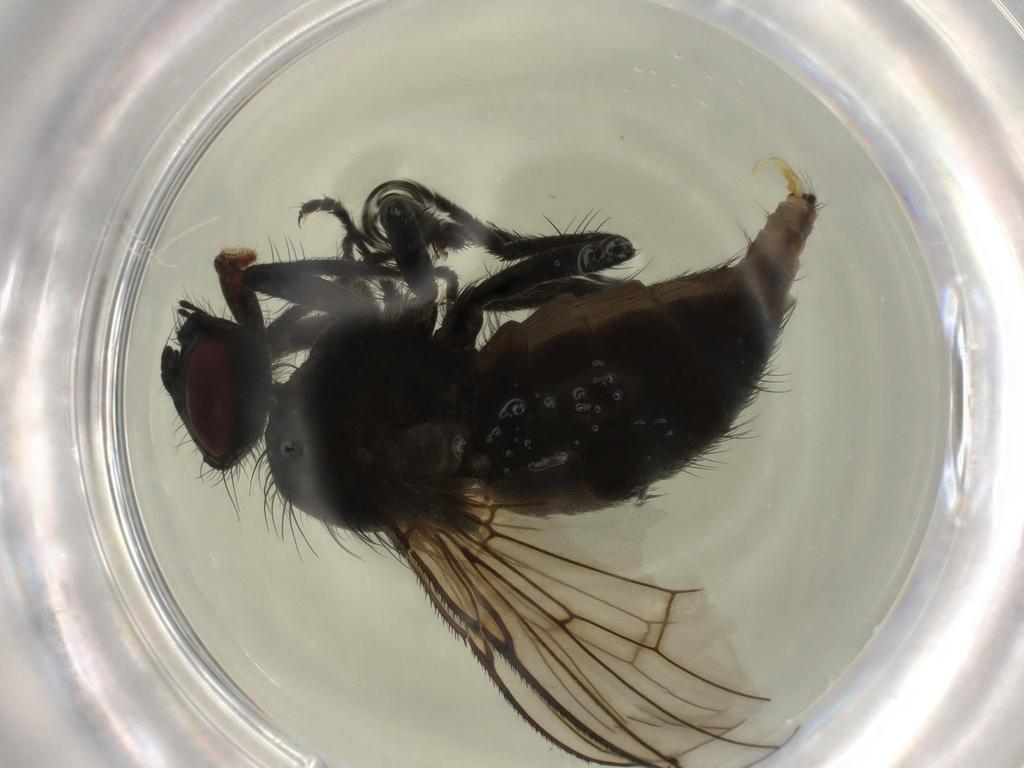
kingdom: Animalia
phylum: Arthropoda
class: Insecta
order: Diptera
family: Muscidae
